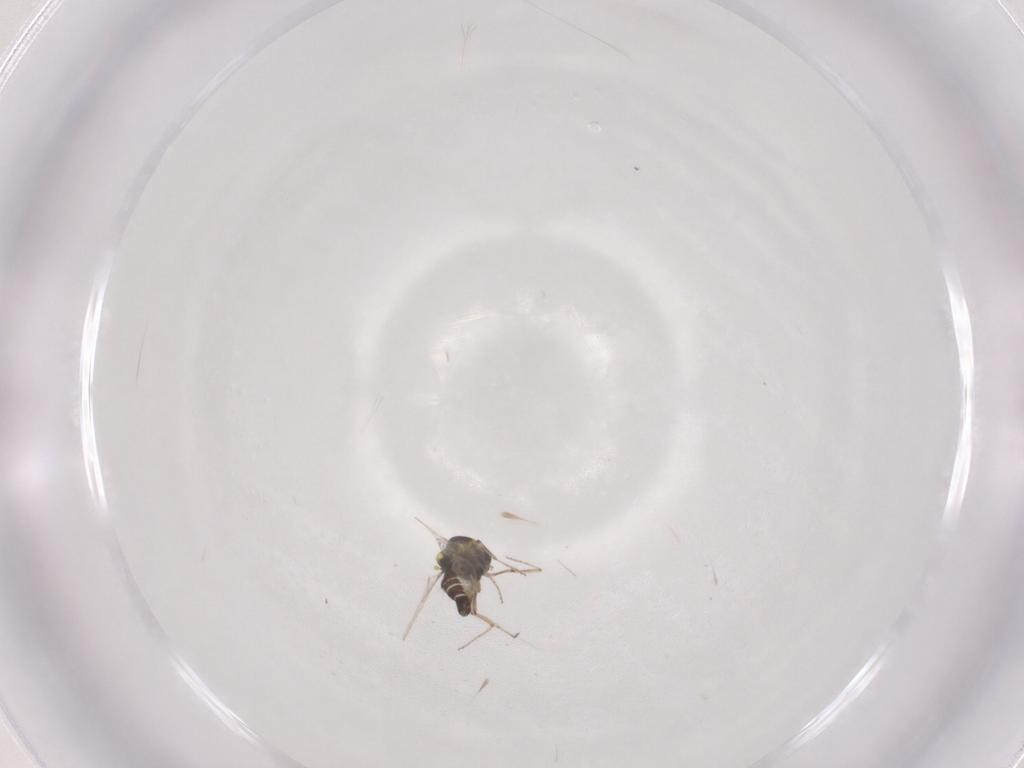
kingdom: Animalia
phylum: Arthropoda
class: Insecta
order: Diptera
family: Ceratopogonidae
